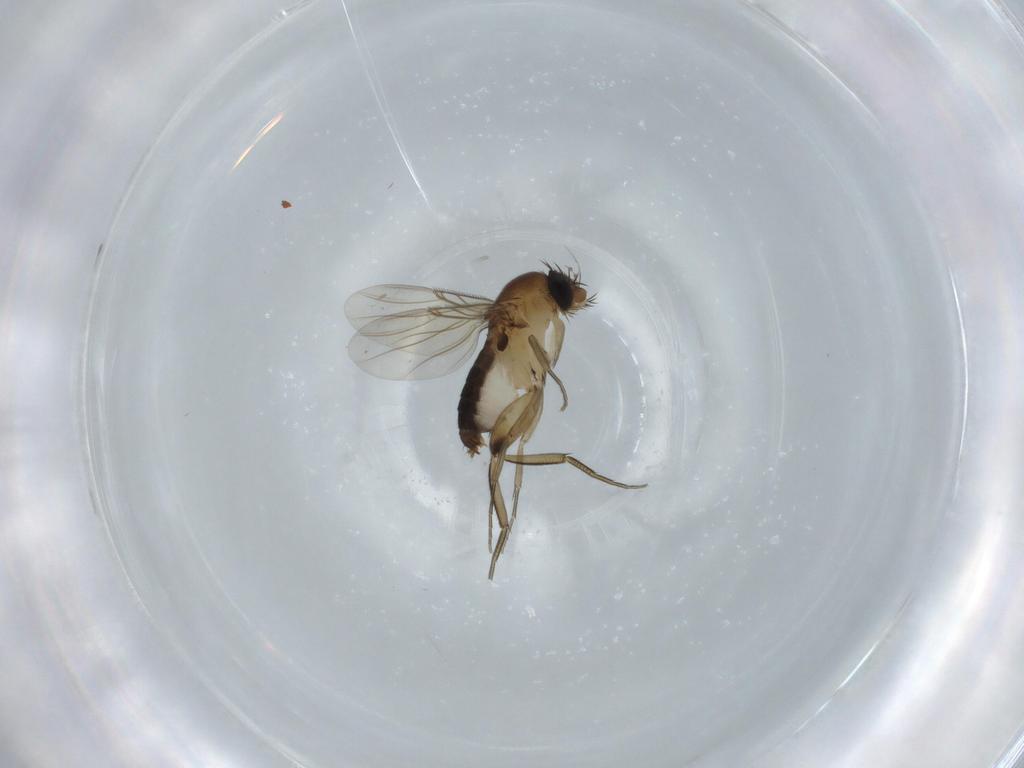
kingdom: Animalia
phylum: Arthropoda
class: Insecta
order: Diptera
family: Phoridae
